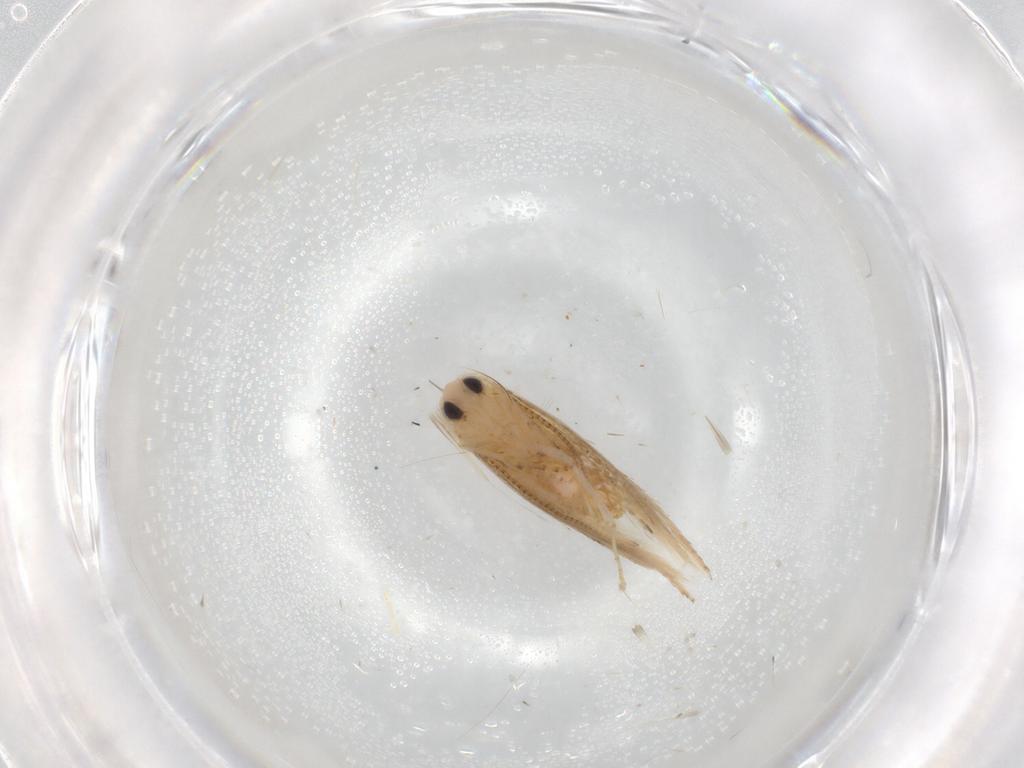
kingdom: Animalia
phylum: Arthropoda
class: Insecta
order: Lepidoptera
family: Bucculatricidae
